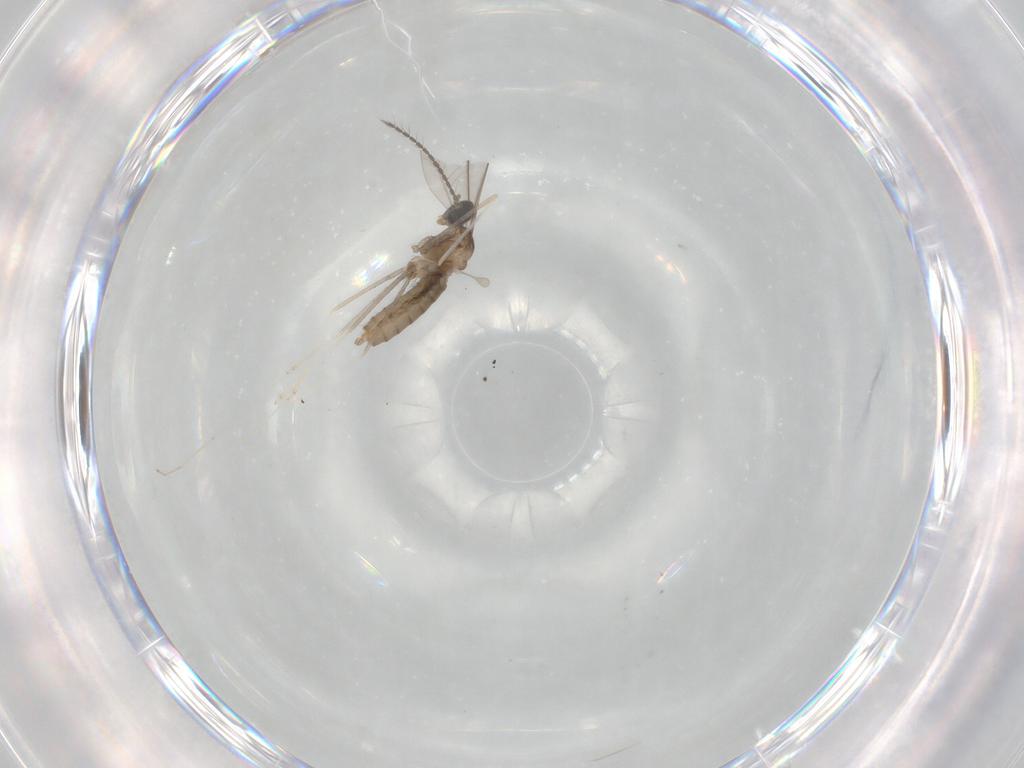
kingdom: Animalia
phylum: Arthropoda
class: Insecta
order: Diptera
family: Cecidomyiidae
